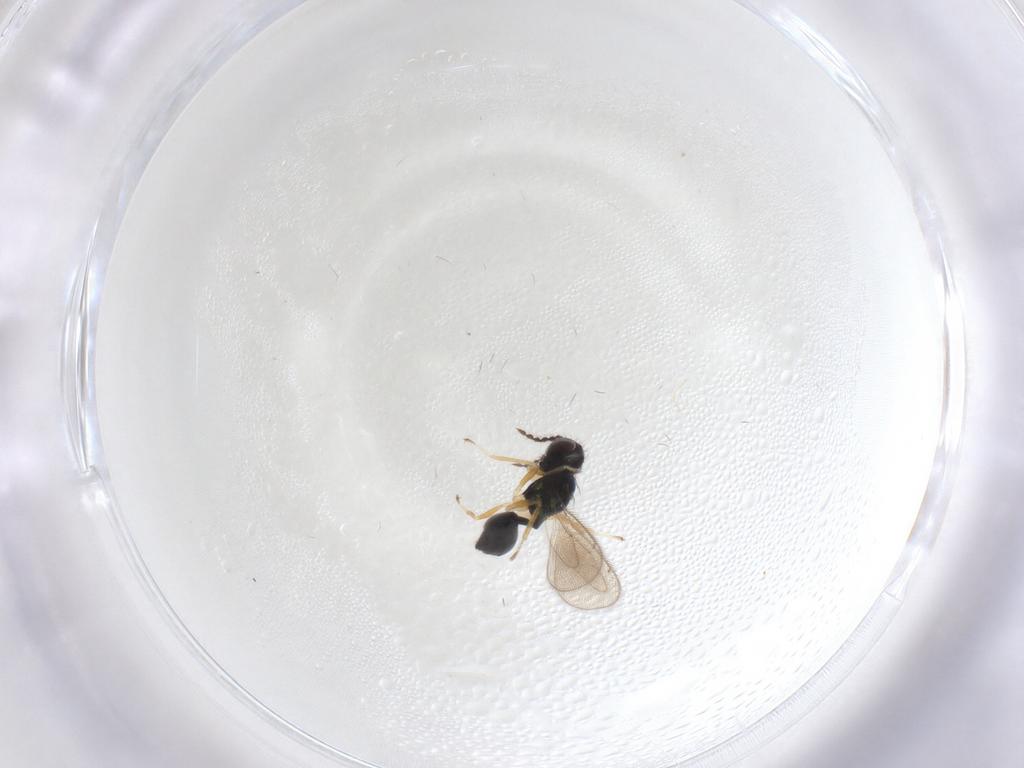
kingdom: Animalia
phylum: Arthropoda
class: Insecta
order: Hymenoptera
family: Eulophidae
